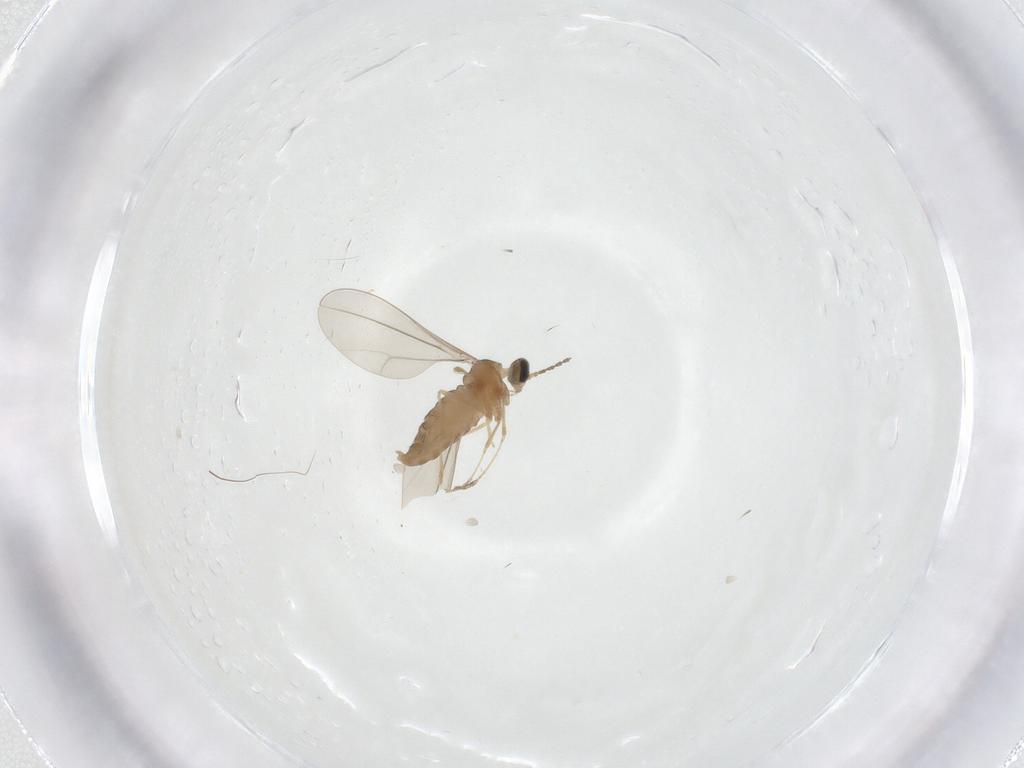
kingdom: Animalia
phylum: Arthropoda
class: Insecta
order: Diptera
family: Cecidomyiidae
